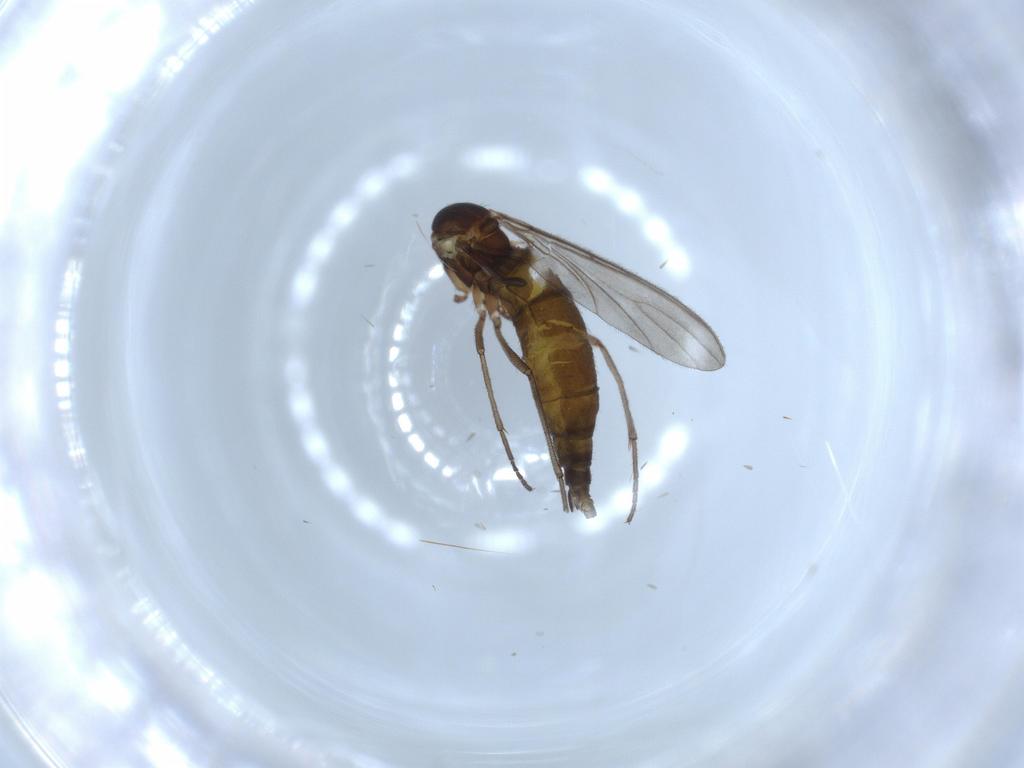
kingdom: Animalia
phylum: Arthropoda
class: Insecta
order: Diptera
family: Sciaridae
